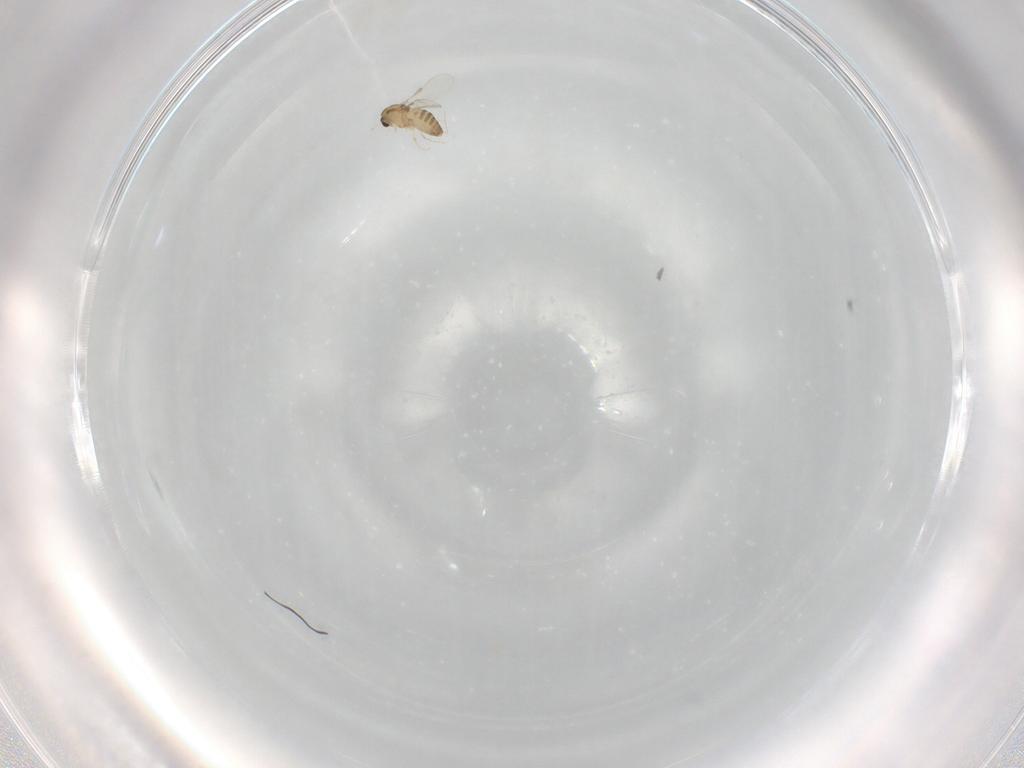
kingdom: Animalia
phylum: Arthropoda
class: Insecta
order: Diptera
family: Chironomidae
